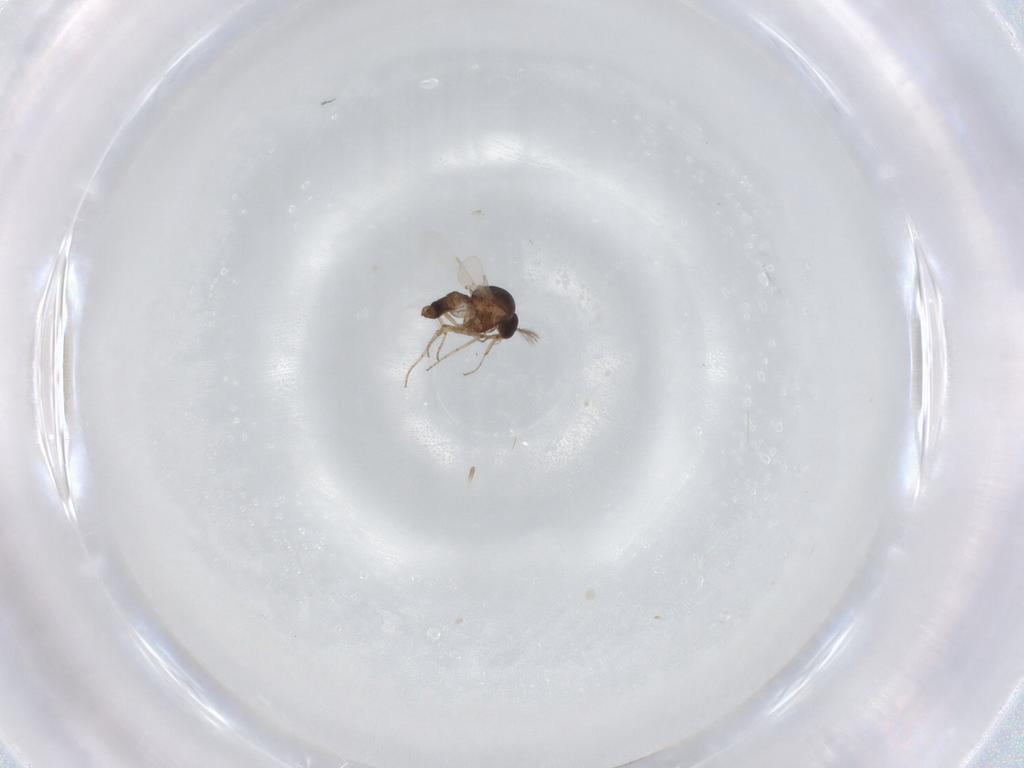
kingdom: Animalia
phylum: Arthropoda
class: Insecta
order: Diptera
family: Ceratopogonidae
